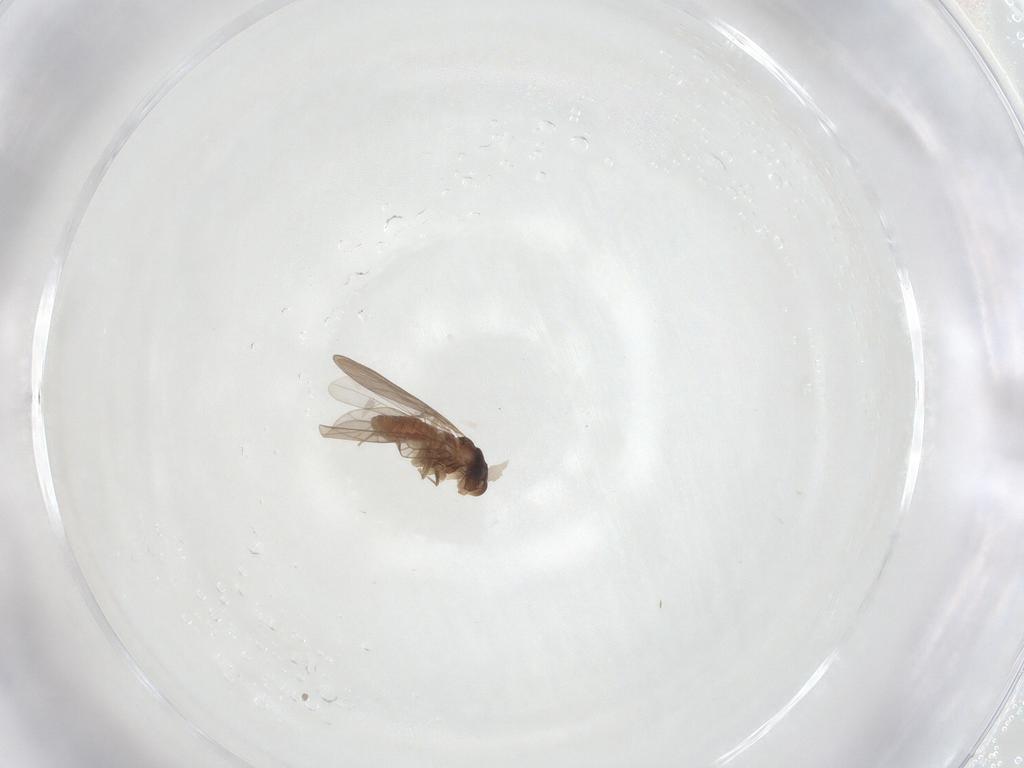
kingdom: Animalia
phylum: Arthropoda
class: Insecta
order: Psocodea
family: Lepidopsocidae
